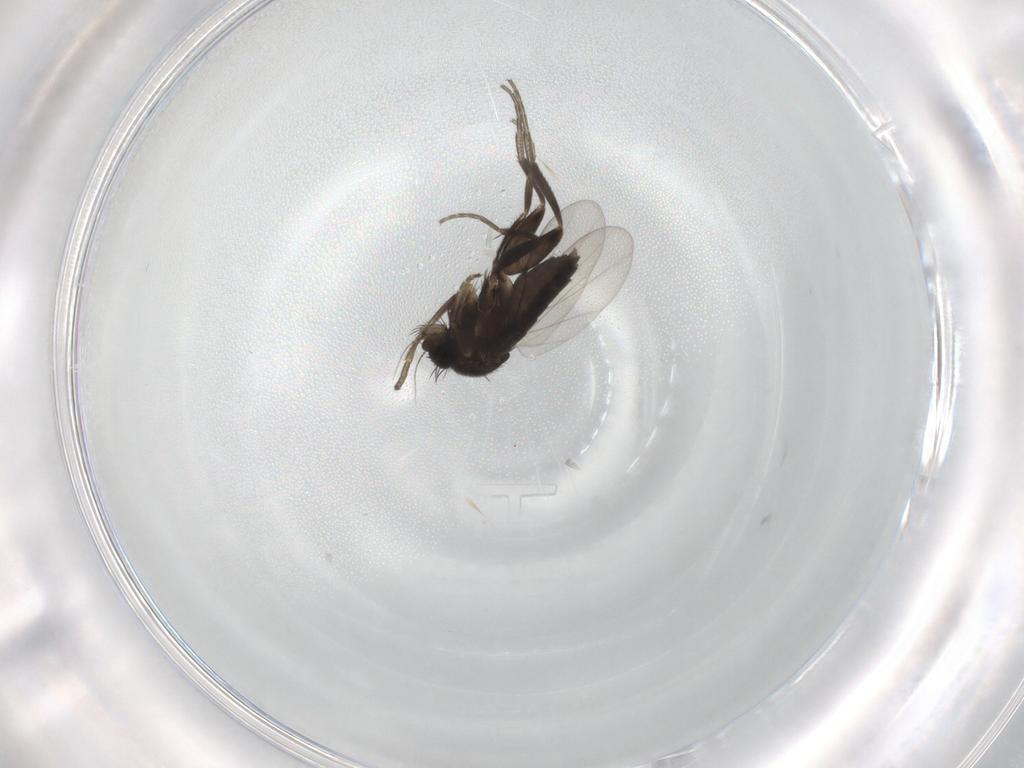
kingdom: Animalia
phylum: Arthropoda
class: Insecta
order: Diptera
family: Phoridae
